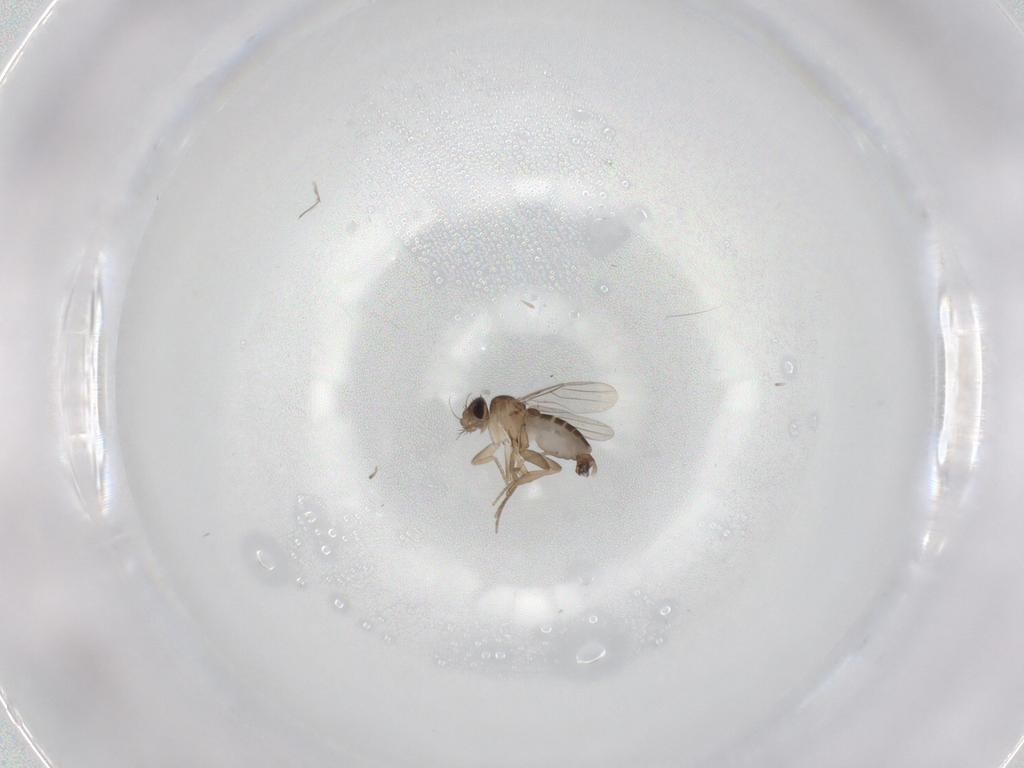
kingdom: Animalia
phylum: Arthropoda
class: Insecta
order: Diptera
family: Phoridae
